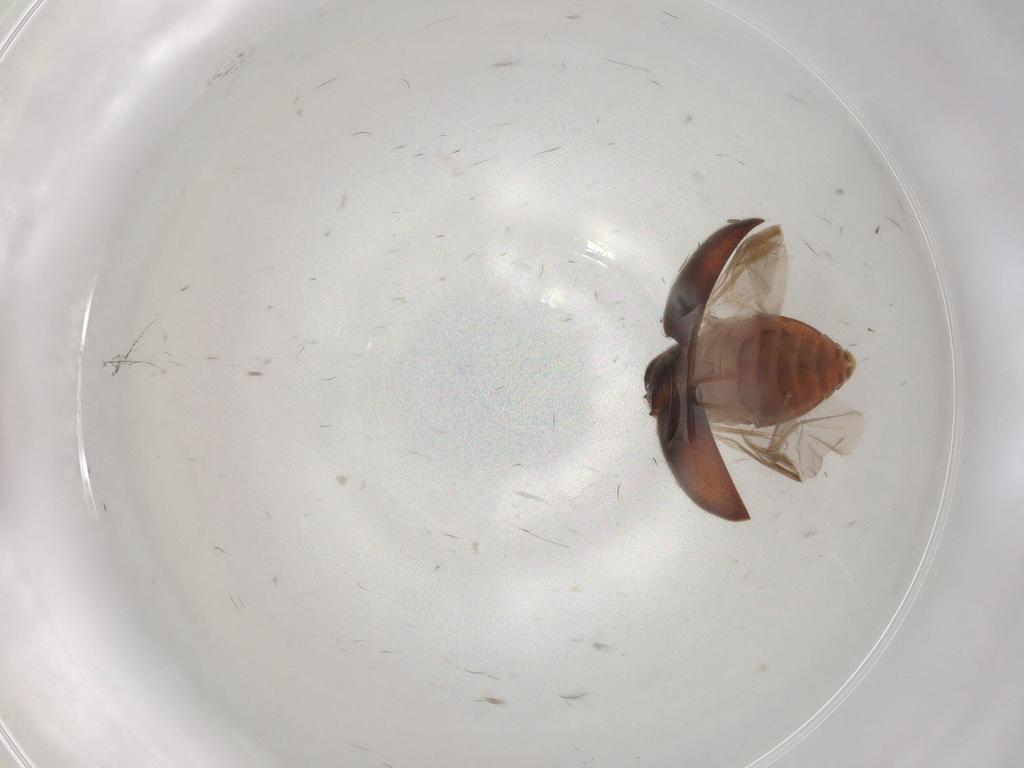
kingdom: Animalia
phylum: Arthropoda
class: Insecta
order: Coleoptera
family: Limnichidae
